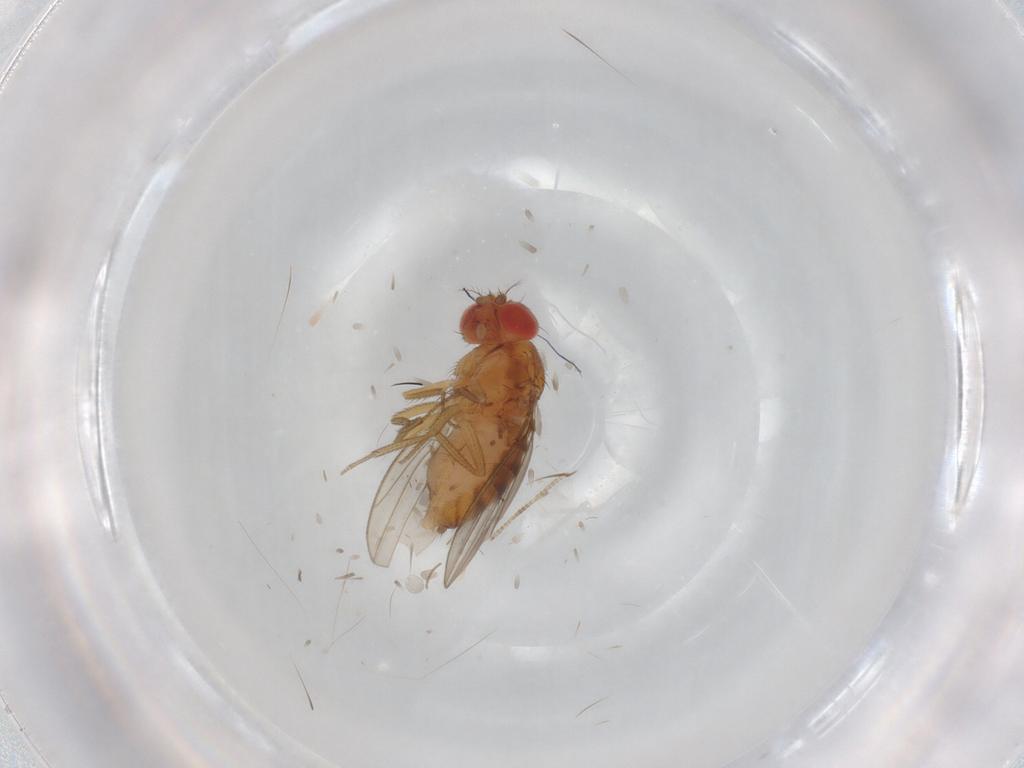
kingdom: Animalia
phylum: Arthropoda
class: Insecta
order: Diptera
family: Drosophilidae
